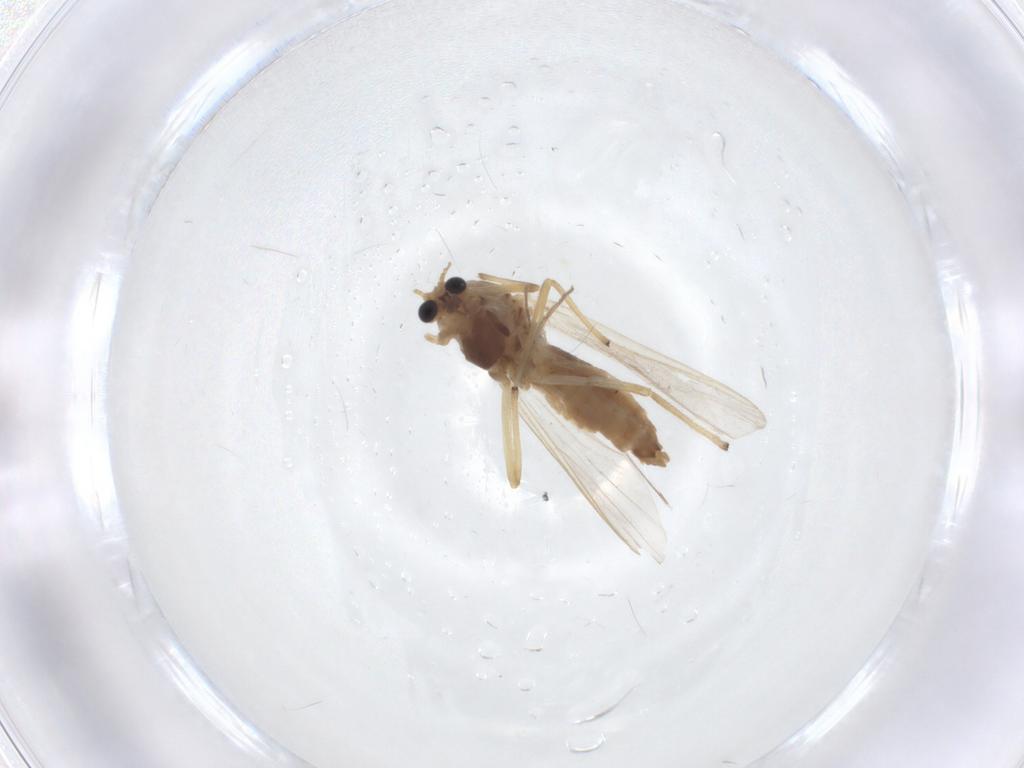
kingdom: Animalia
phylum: Arthropoda
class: Insecta
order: Diptera
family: Chironomidae
